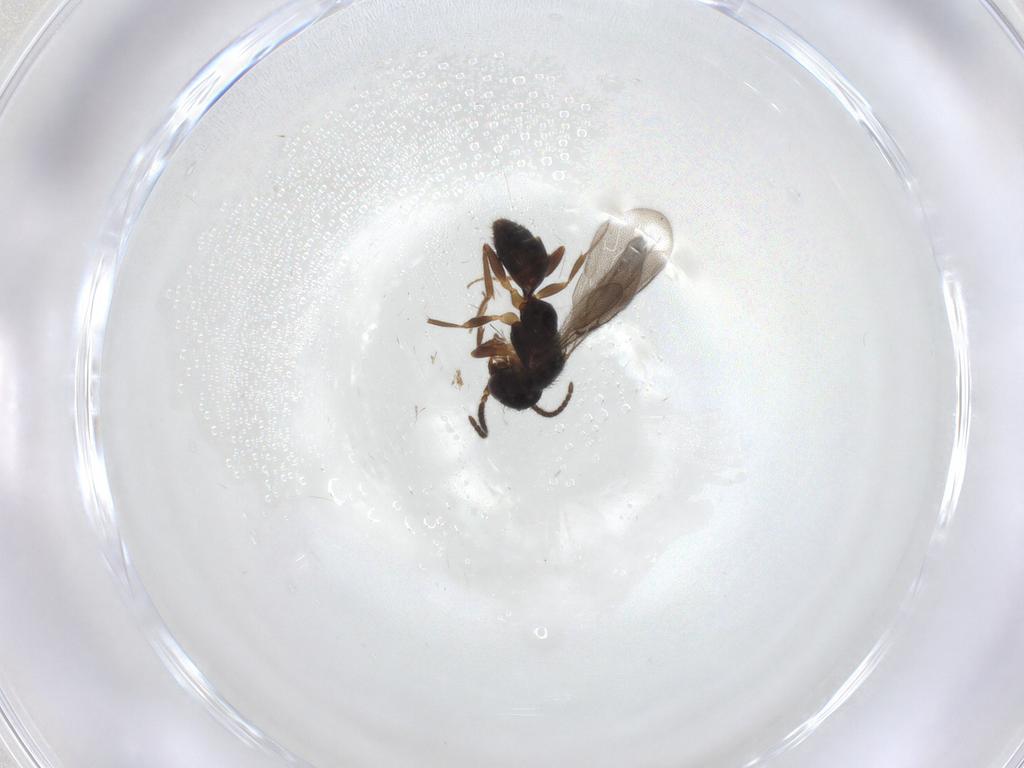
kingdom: Animalia
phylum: Arthropoda
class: Insecta
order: Hymenoptera
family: Bethylidae
